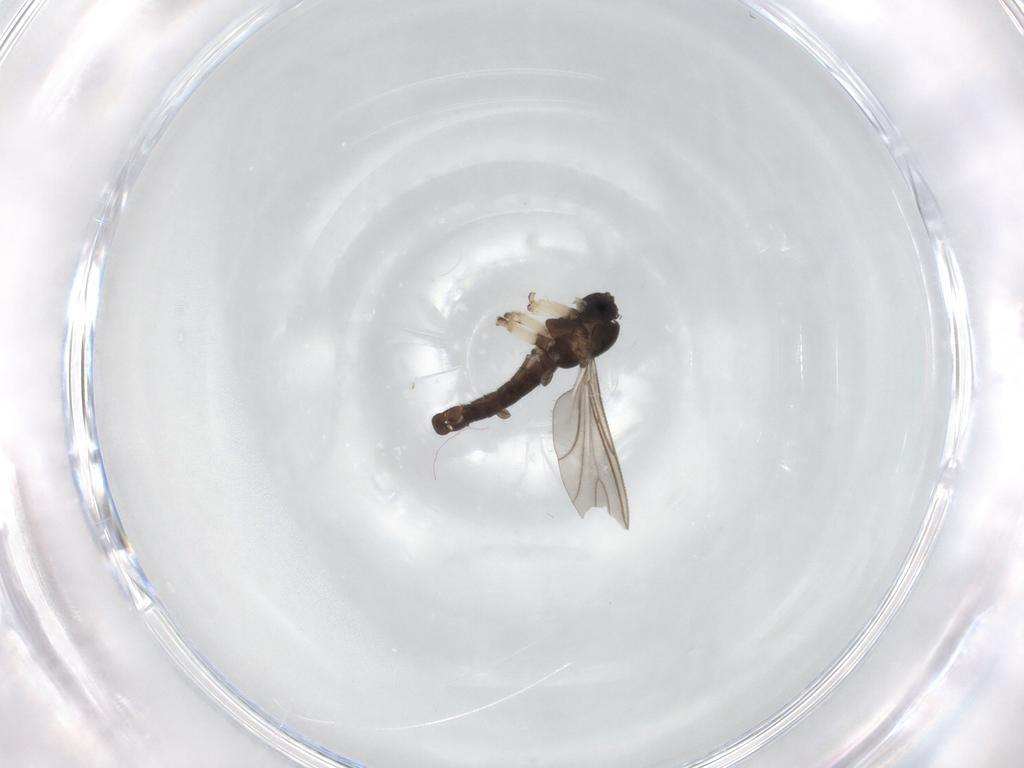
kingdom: Animalia
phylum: Arthropoda
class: Insecta
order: Diptera
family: Sciaridae
